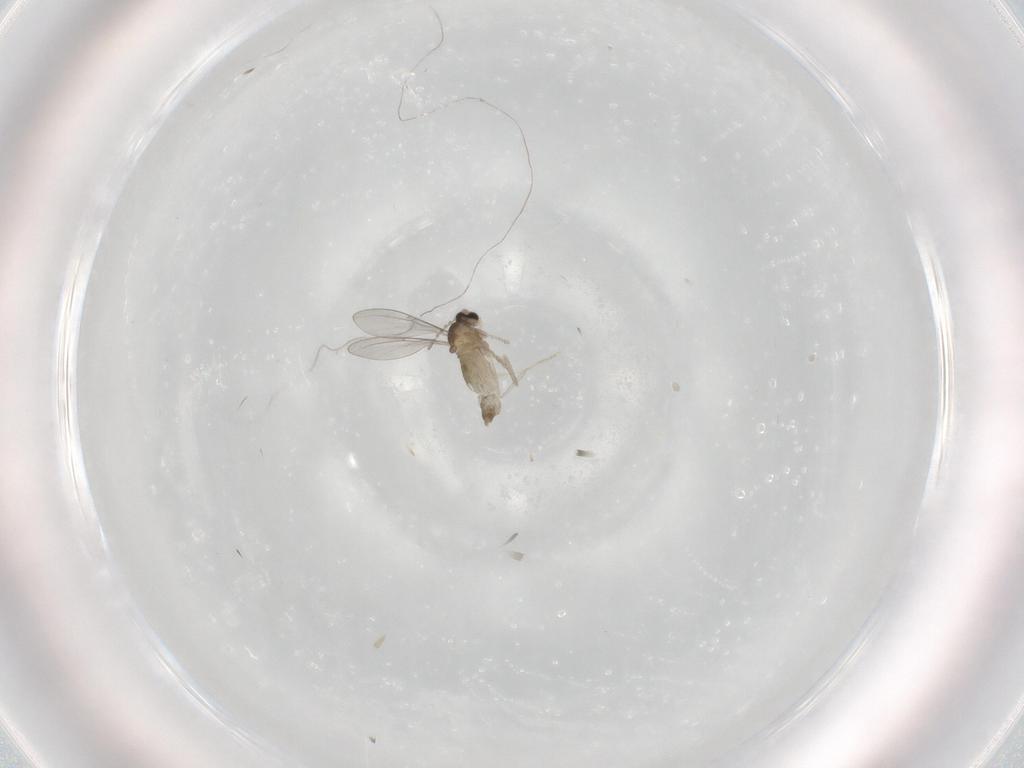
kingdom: Animalia
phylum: Arthropoda
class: Insecta
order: Diptera
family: Cecidomyiidae
